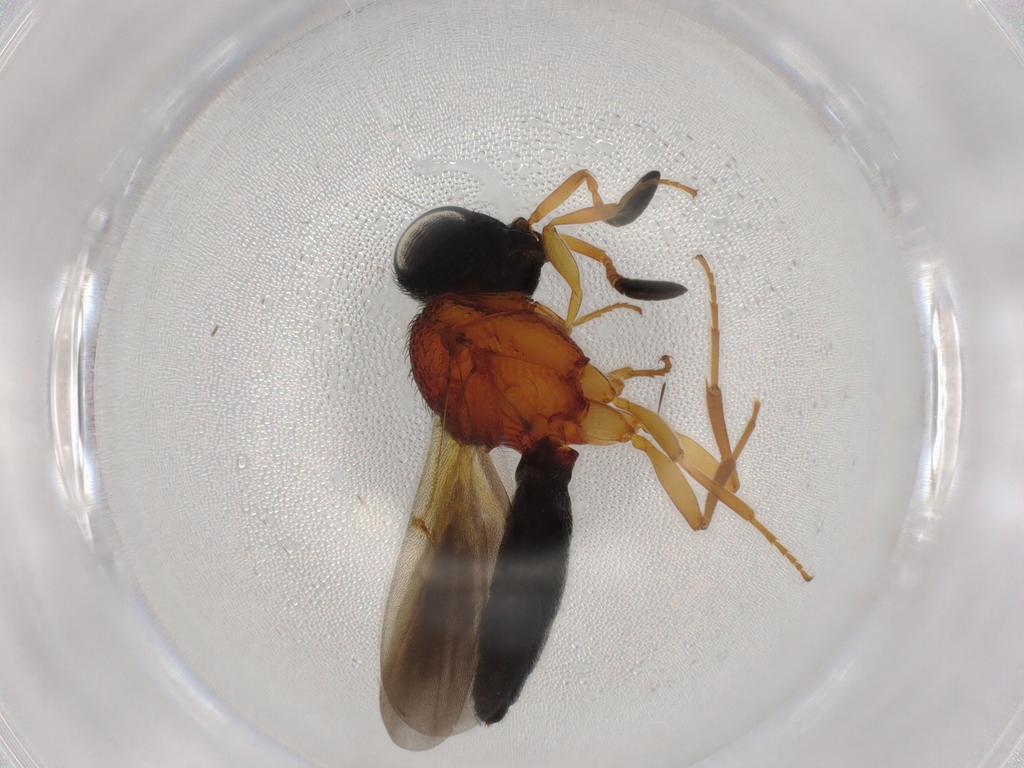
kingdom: Animalia
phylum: Arthropoda
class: Insecta
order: Hymenoptera
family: Scelionidae
